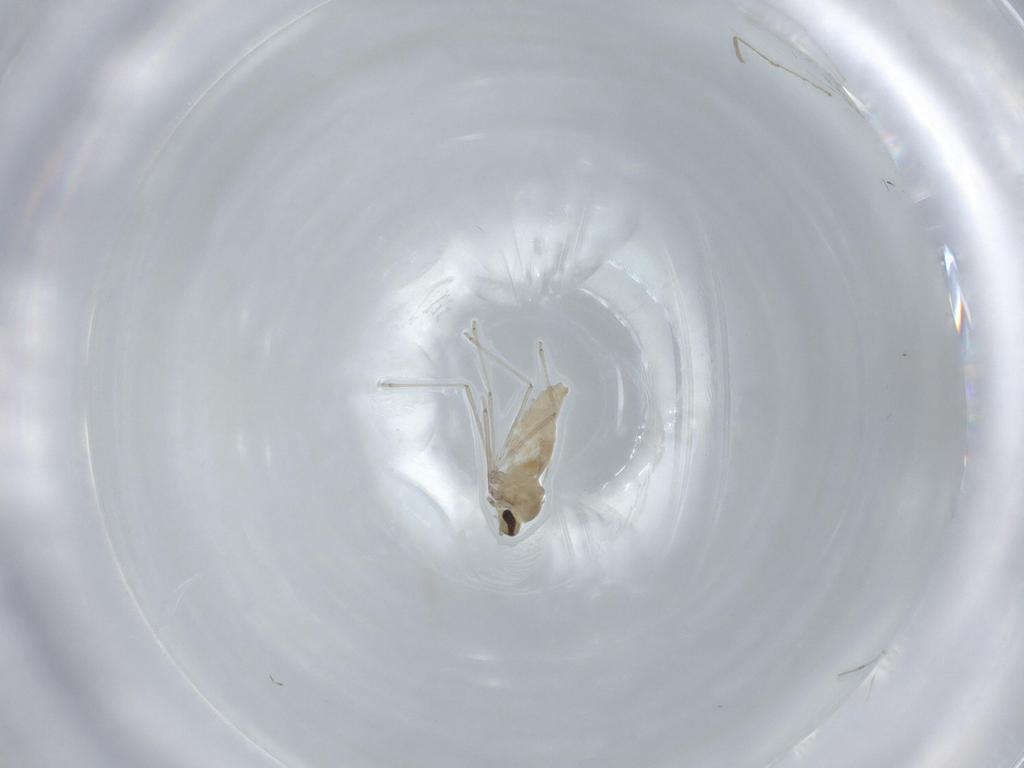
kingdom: Animalia
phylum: Arthropoda
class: Insecta
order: Diptera
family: Cecidomyiidae
